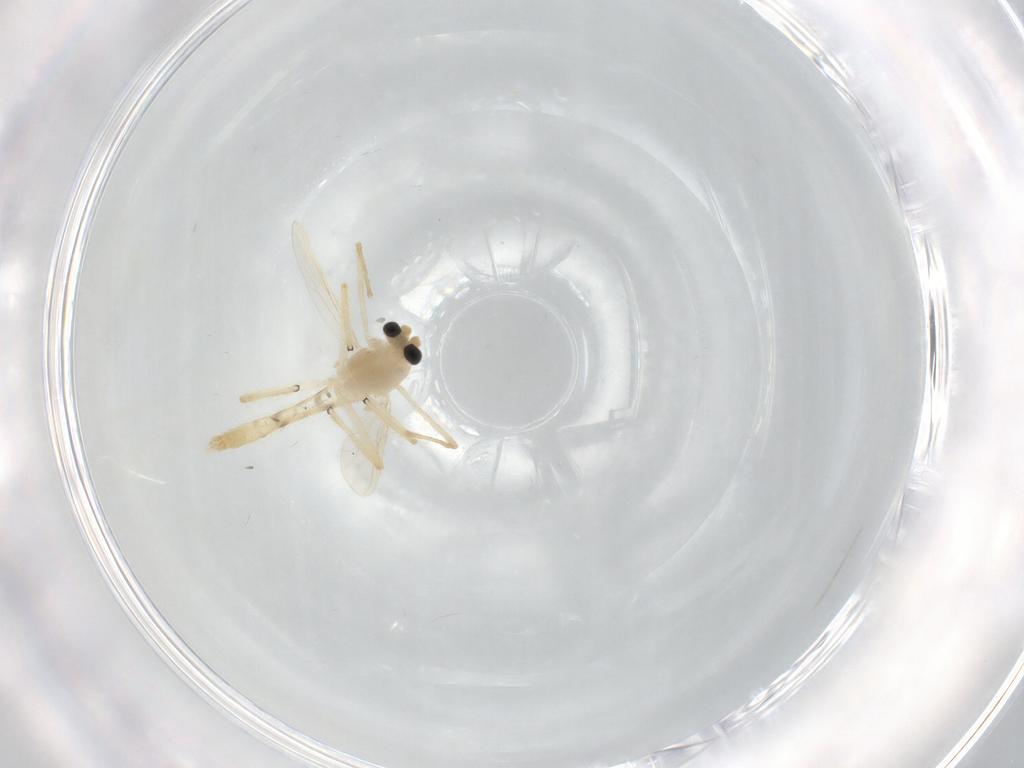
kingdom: Animalia
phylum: Arthropoda
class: Insecta
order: Diptera
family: Chironomidae
